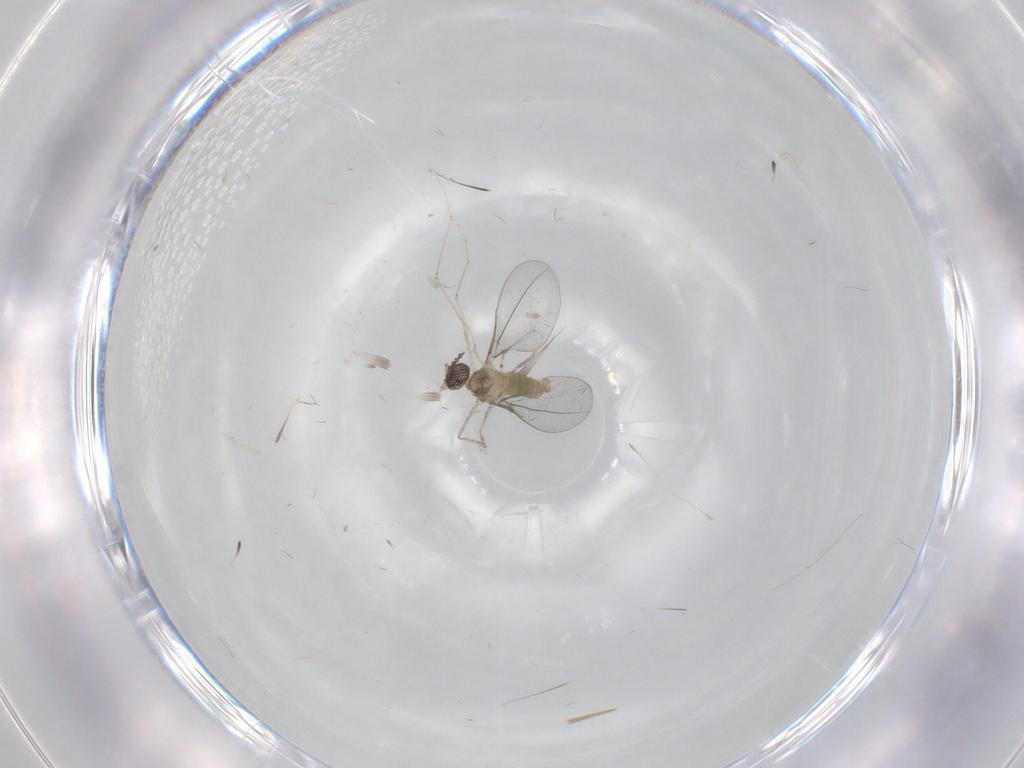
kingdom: Animalia
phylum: Arthropoda
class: Insecta
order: Diptera
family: Cecidomyiidae
